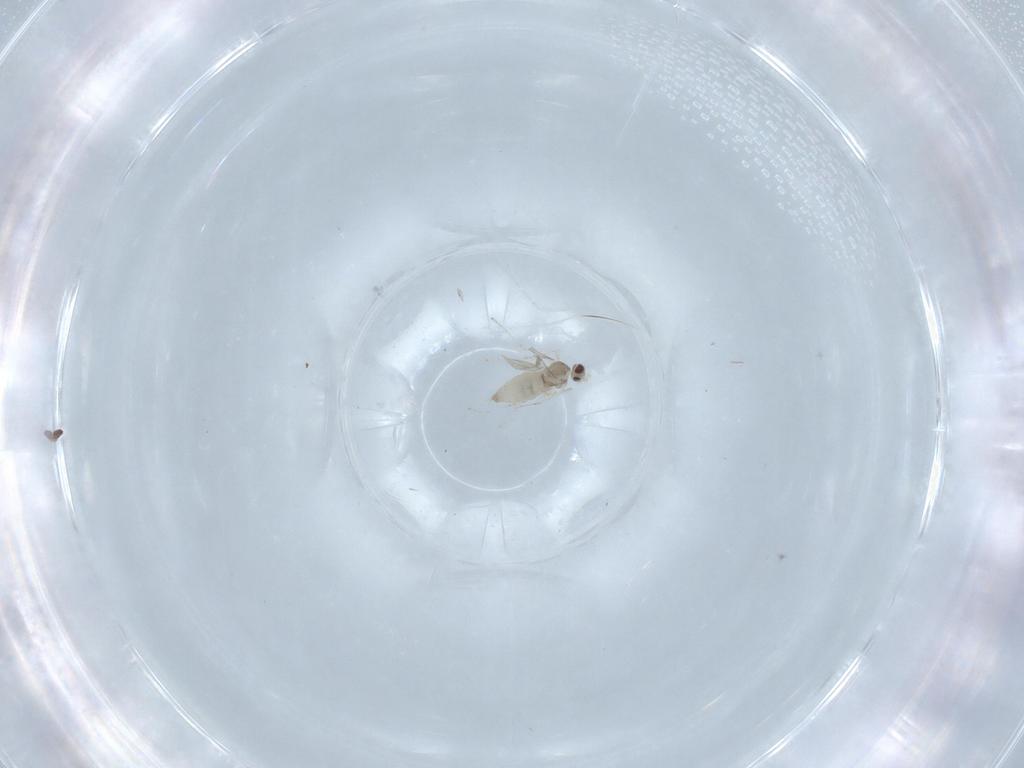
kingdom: Animalia
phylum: Arthropoda
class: Insecta
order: Diptera
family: Cecidomyiidae
